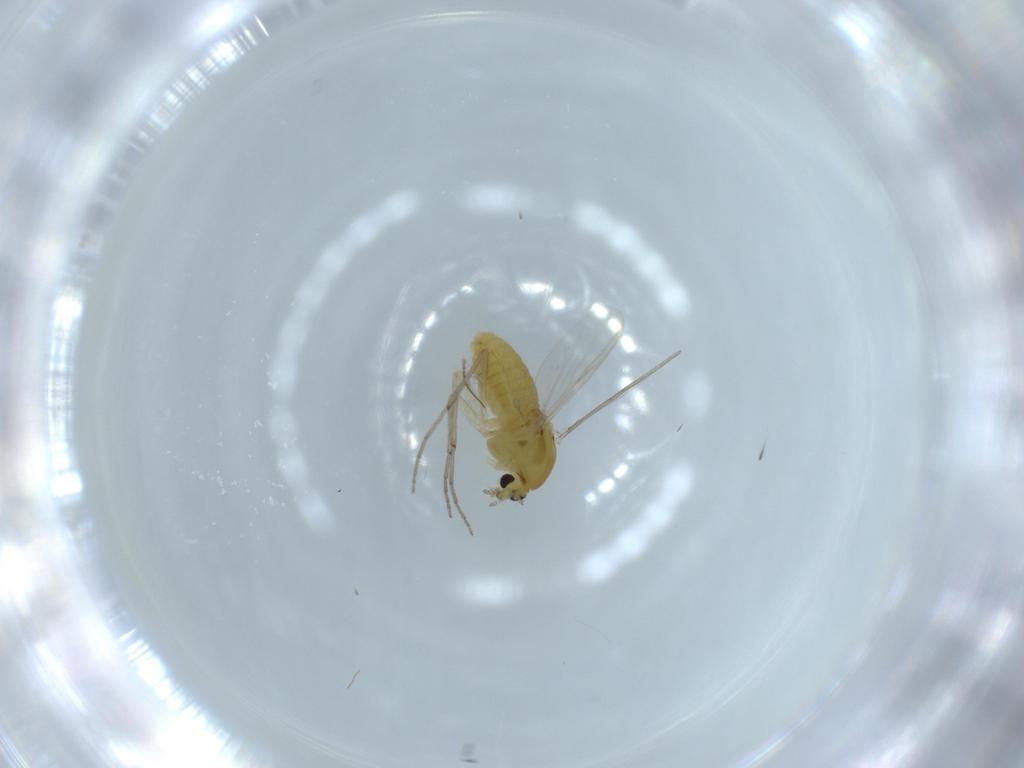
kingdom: Animalia
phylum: Arthropoda
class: Insecta
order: Diptera
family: Chironomidae
